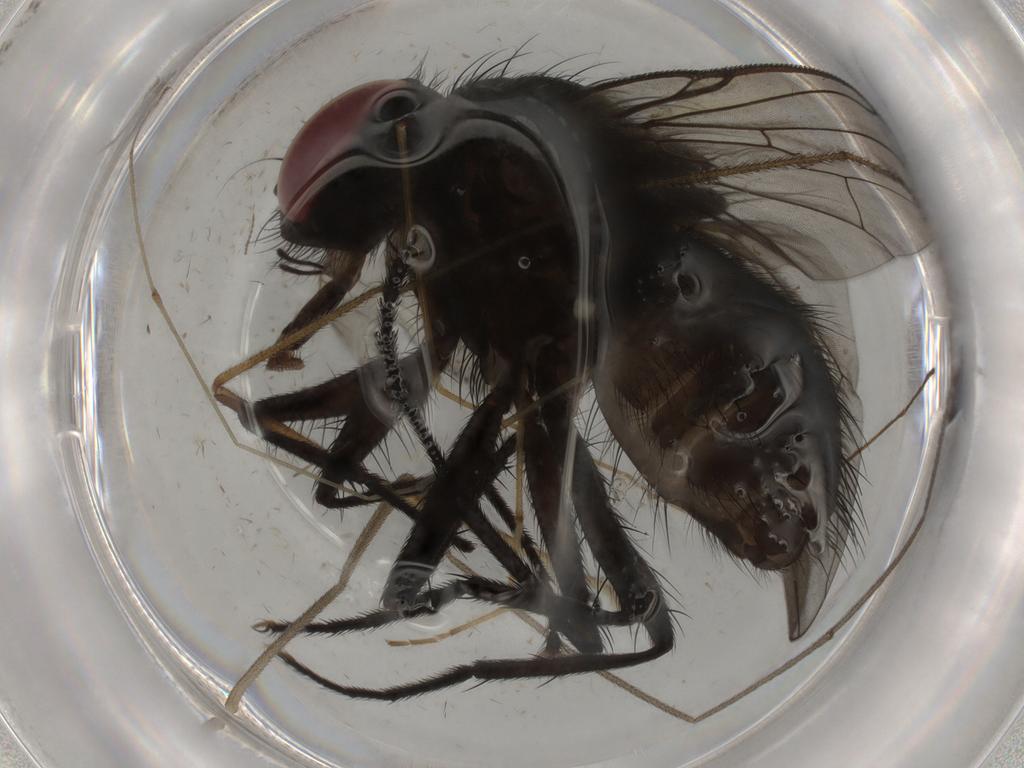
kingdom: Animalia
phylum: Arthropoda
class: Insecta
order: Diptera
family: Dolichopodidae
